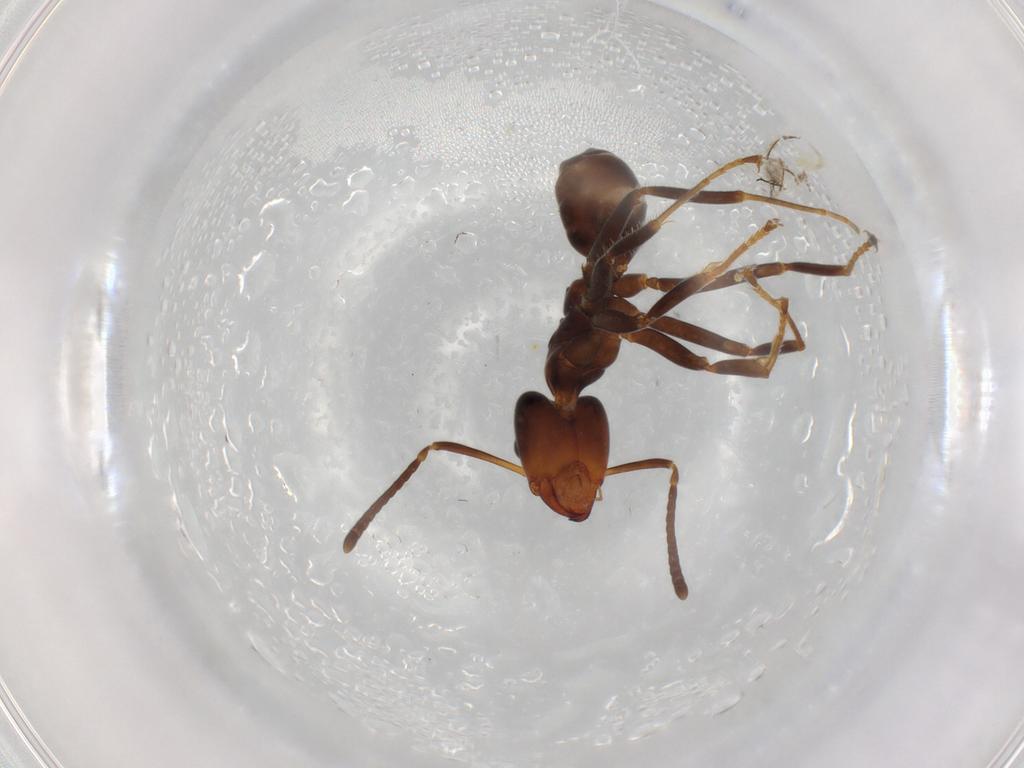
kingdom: Animalia
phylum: Arthropoda
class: Insecta
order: Hymenoptera
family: Formicidae
